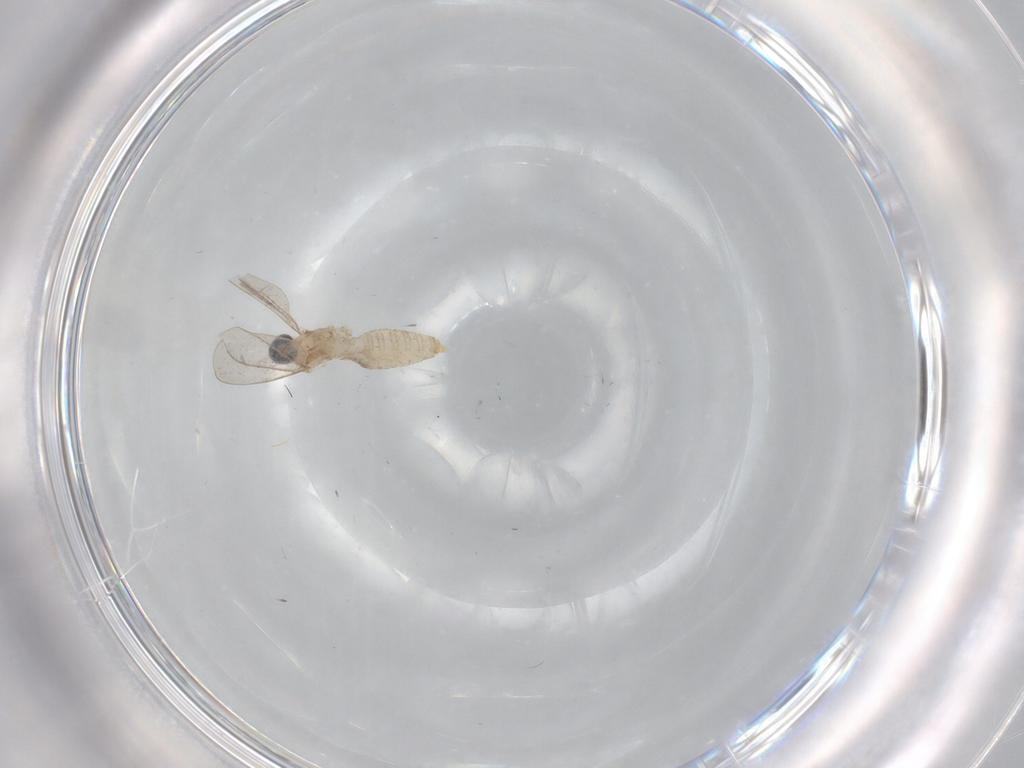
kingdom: Animalia
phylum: Arthropoda
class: Insecta
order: Diptera
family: Cecidomyiidae
